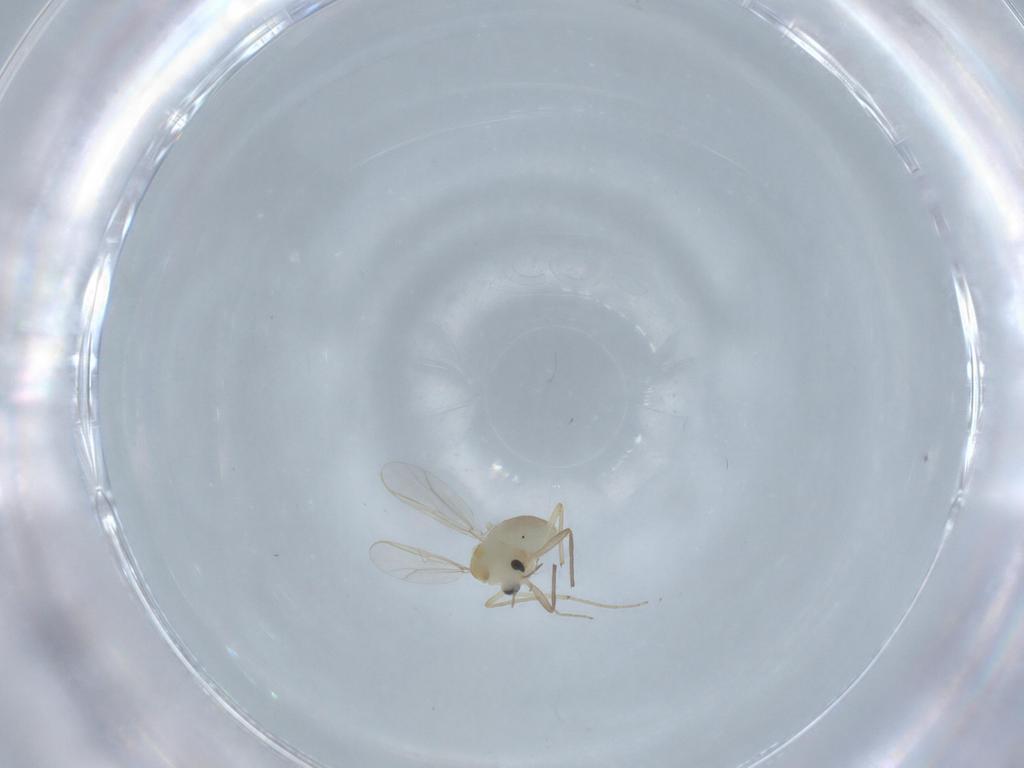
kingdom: Animalia
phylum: Arthropoda
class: Insecta
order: Diptera
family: Chironomidae
